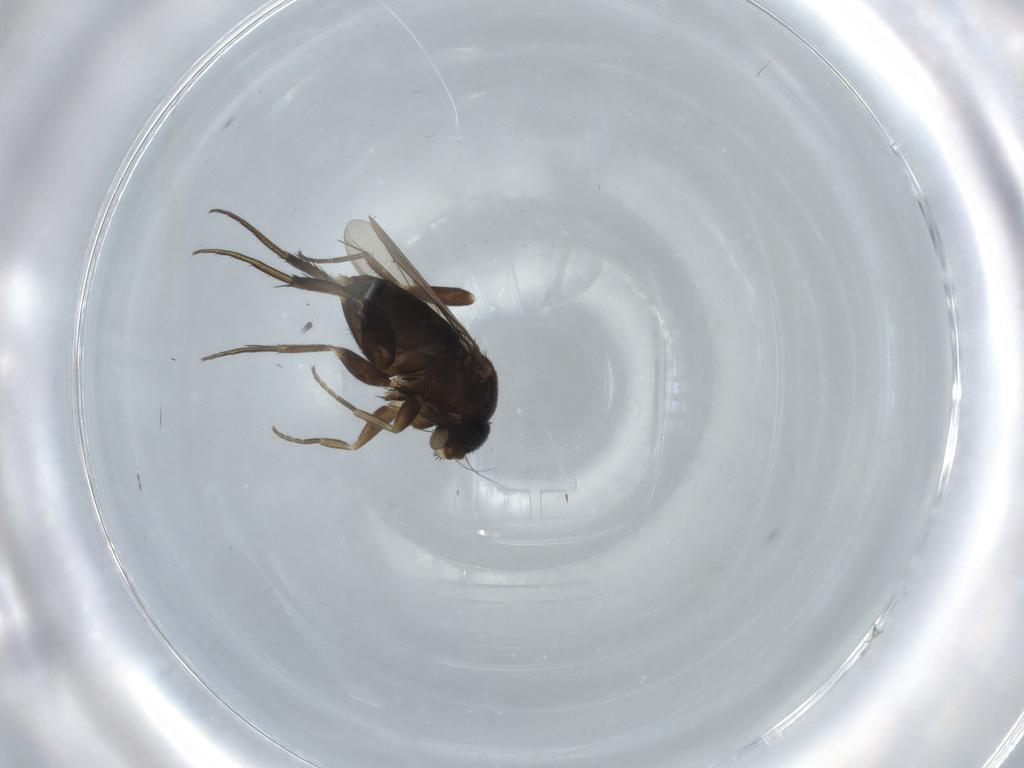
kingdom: Animalia
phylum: Arthropoda
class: Insecta
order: Diptera
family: Phoridae
